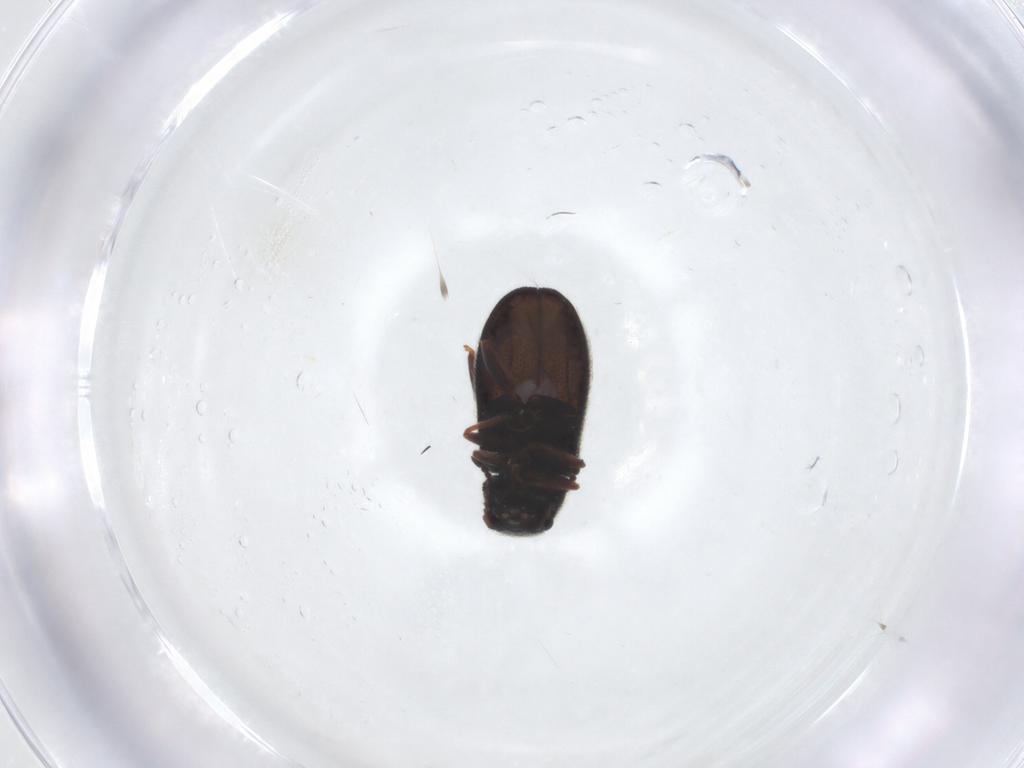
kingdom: Animalia
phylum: Arthropoda
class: Insecta
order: Coleoptera
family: Melyridae
